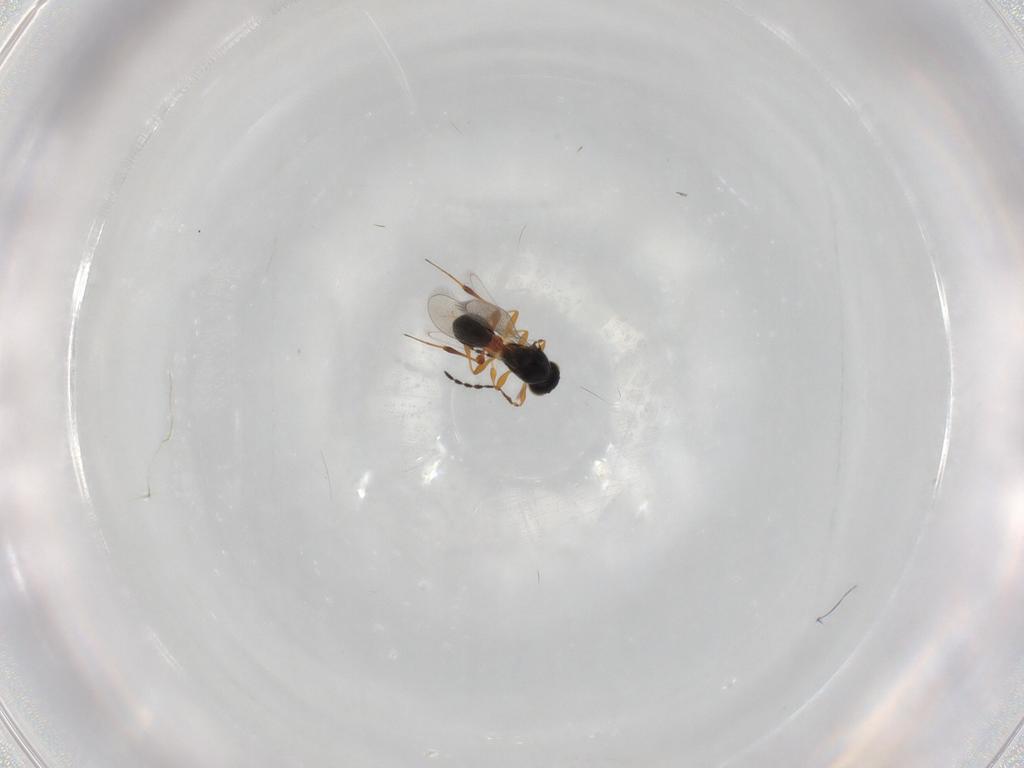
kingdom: Animalia
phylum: Arthropoda
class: Insecta
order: Hymenoptera
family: Platygastridae
